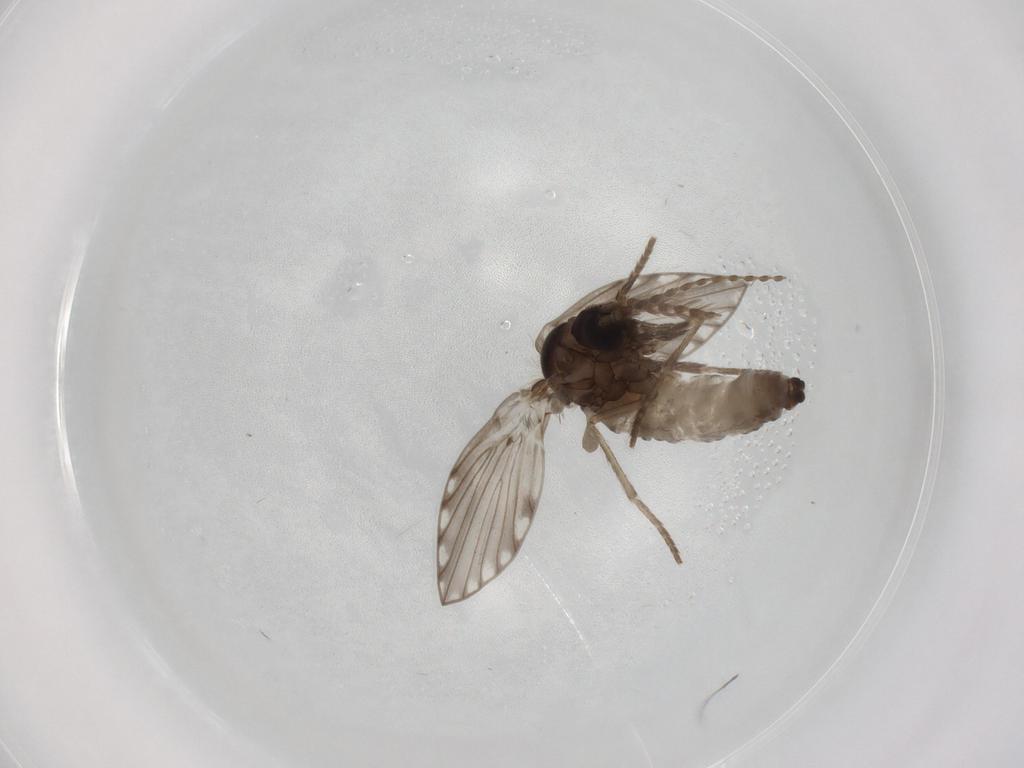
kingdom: Animalia
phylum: Arthropoda
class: Insecta
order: Diptera
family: Psychodidae
